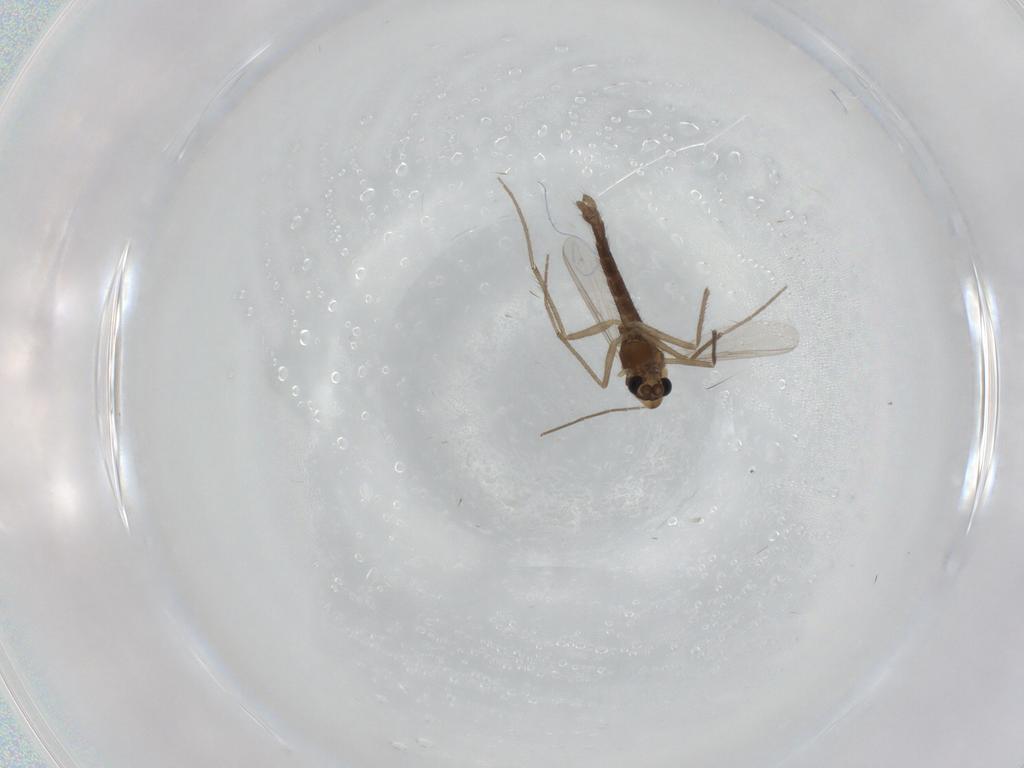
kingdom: Animalia
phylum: Arthropoda
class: Insecta
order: Diptera
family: Chironomidae
